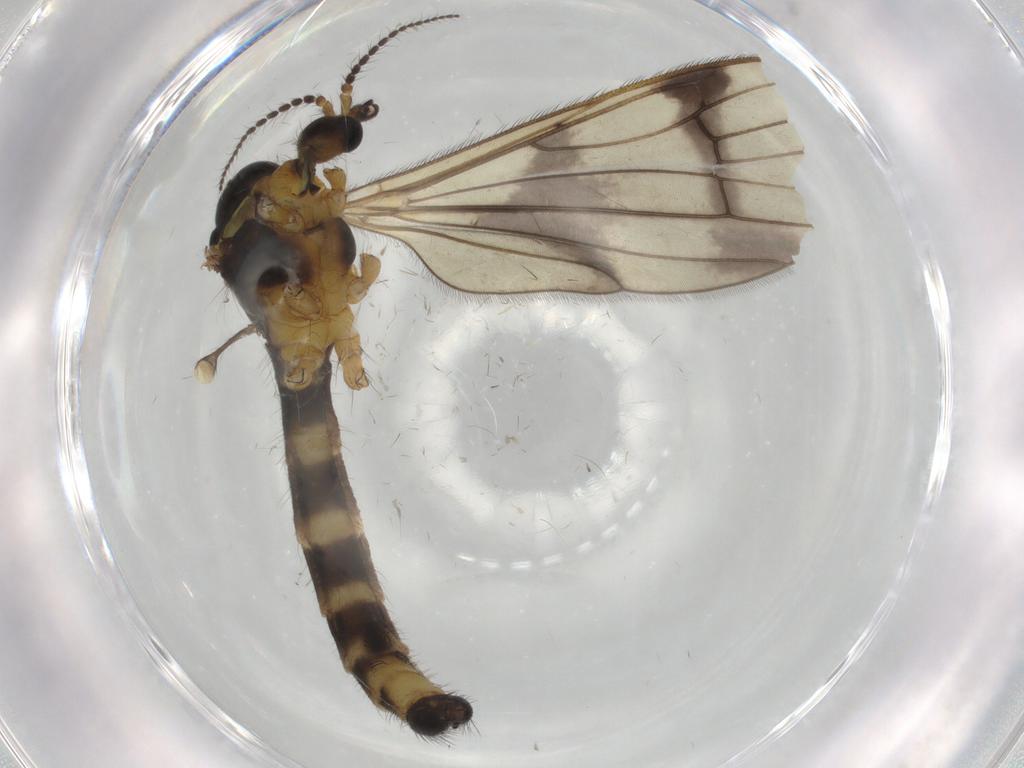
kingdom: Animalia
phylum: Arthropoda
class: Insecta
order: Diptera
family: Limoniidae
